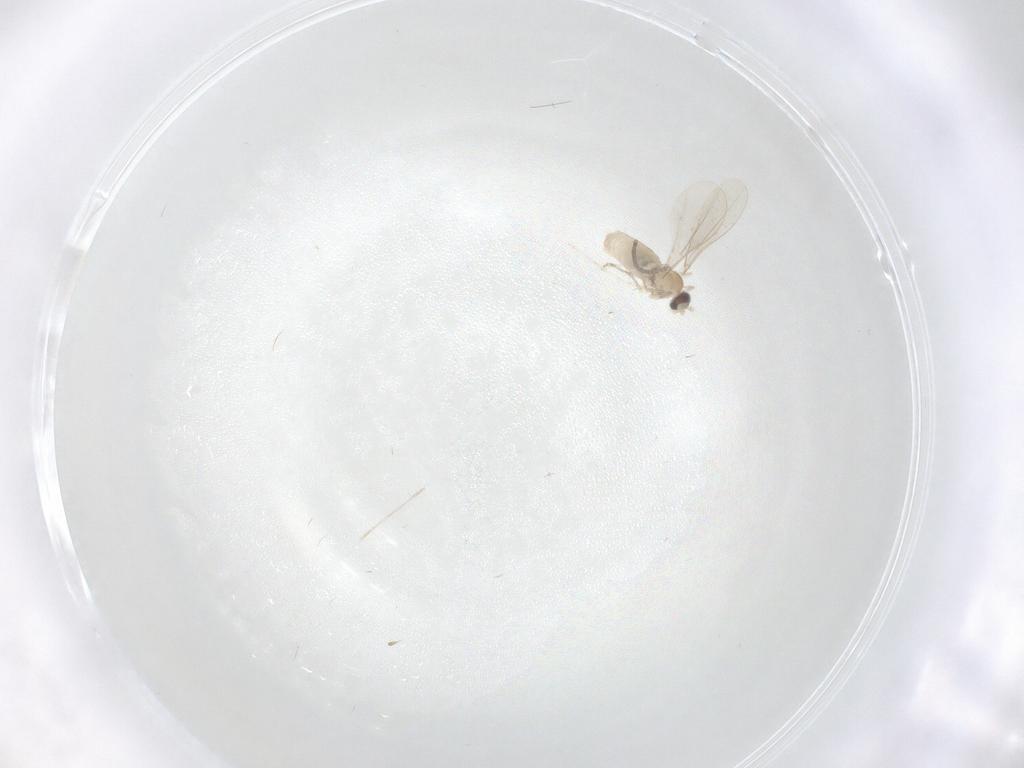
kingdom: Animalia
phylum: Arthropoda
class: Insecta
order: Diptera
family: Cecidomyiidae
